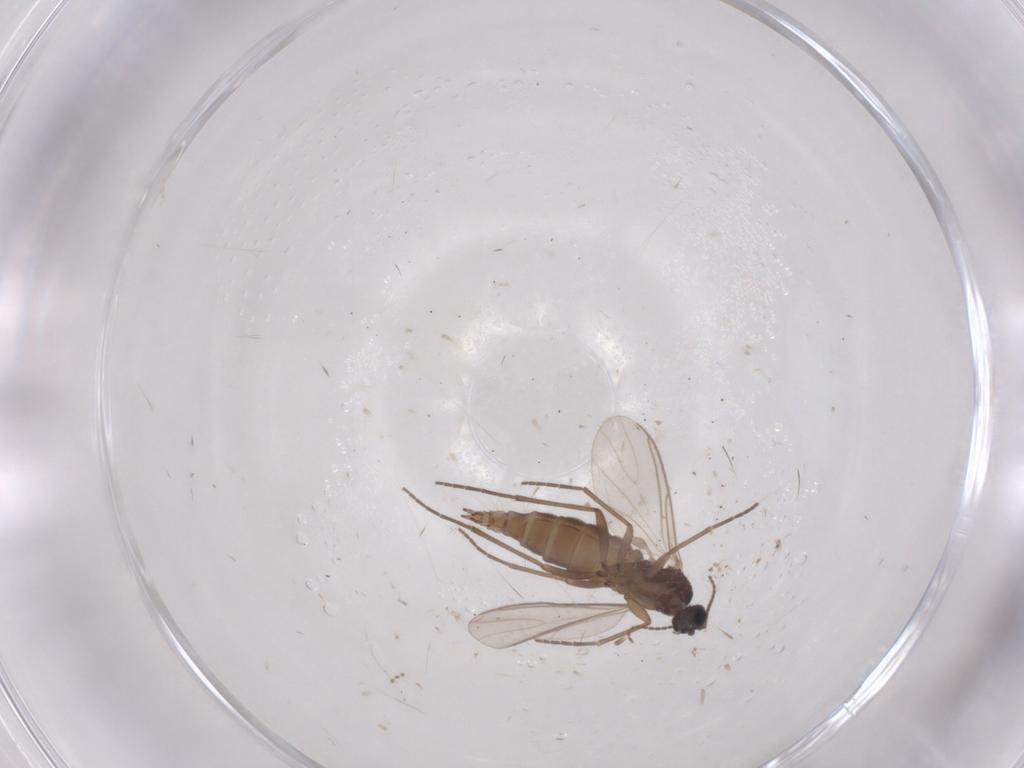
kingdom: Animalia
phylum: Arthropoda
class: Insecta
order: Diptera
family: Sciaridae
